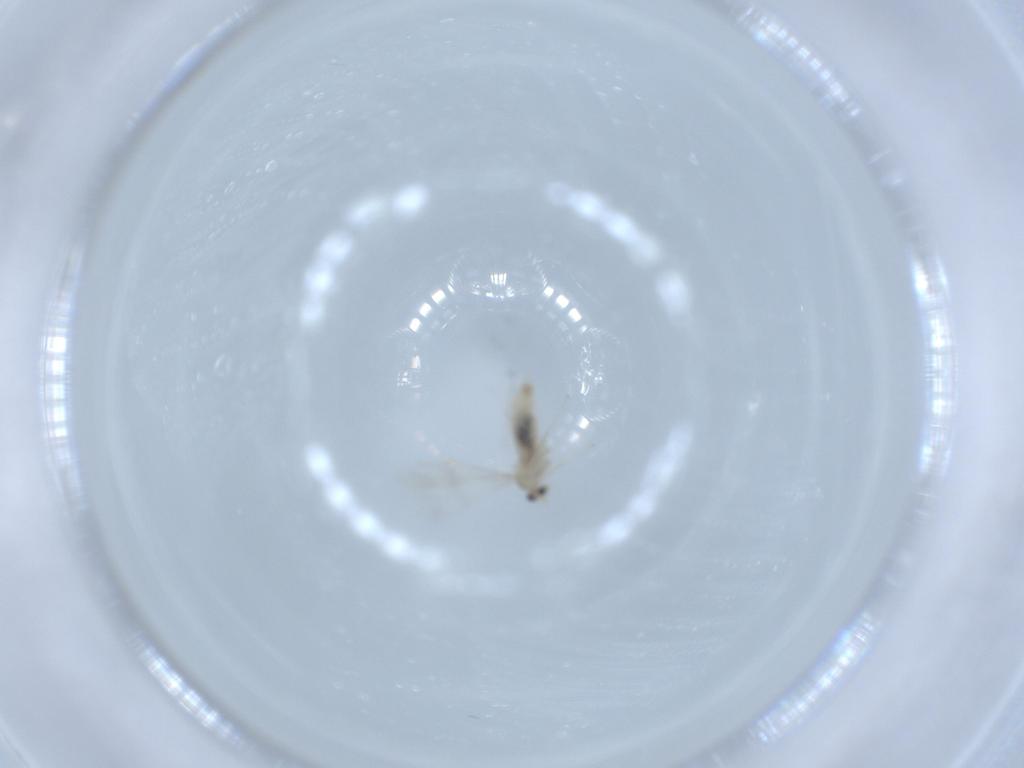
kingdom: Animalia
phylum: Arthropoda
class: Insecta
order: Diptera
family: Cecidomyiidae
